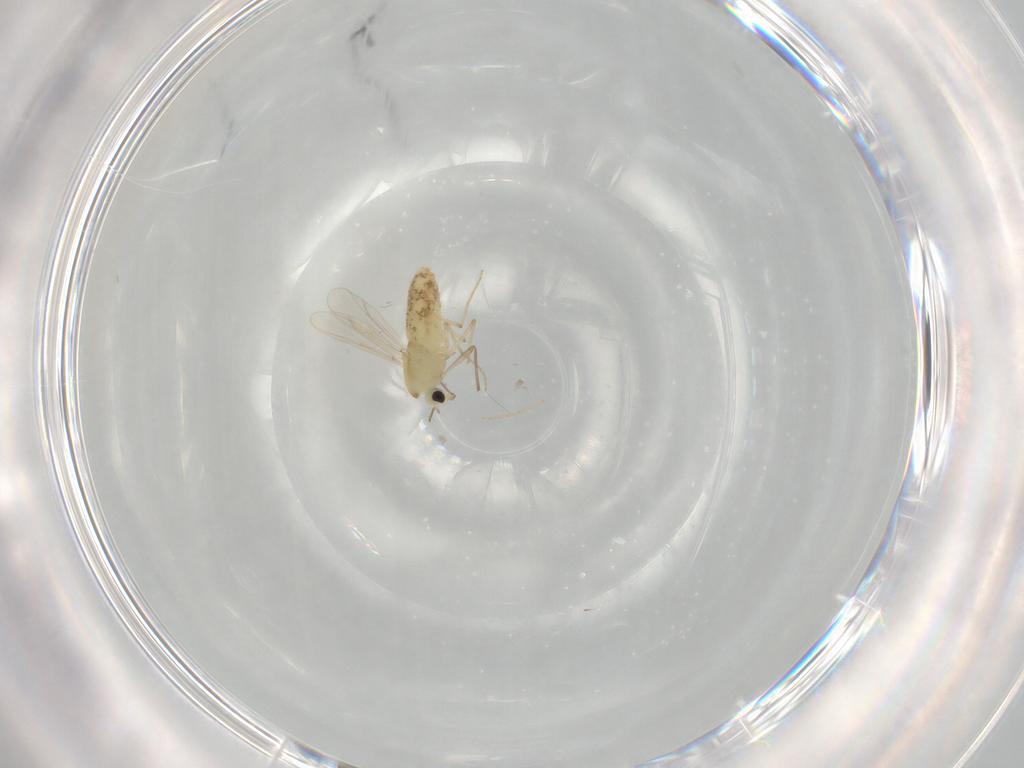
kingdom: Animalia
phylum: Arthropoda
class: Insecta
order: Diptera
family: Chironomidae
